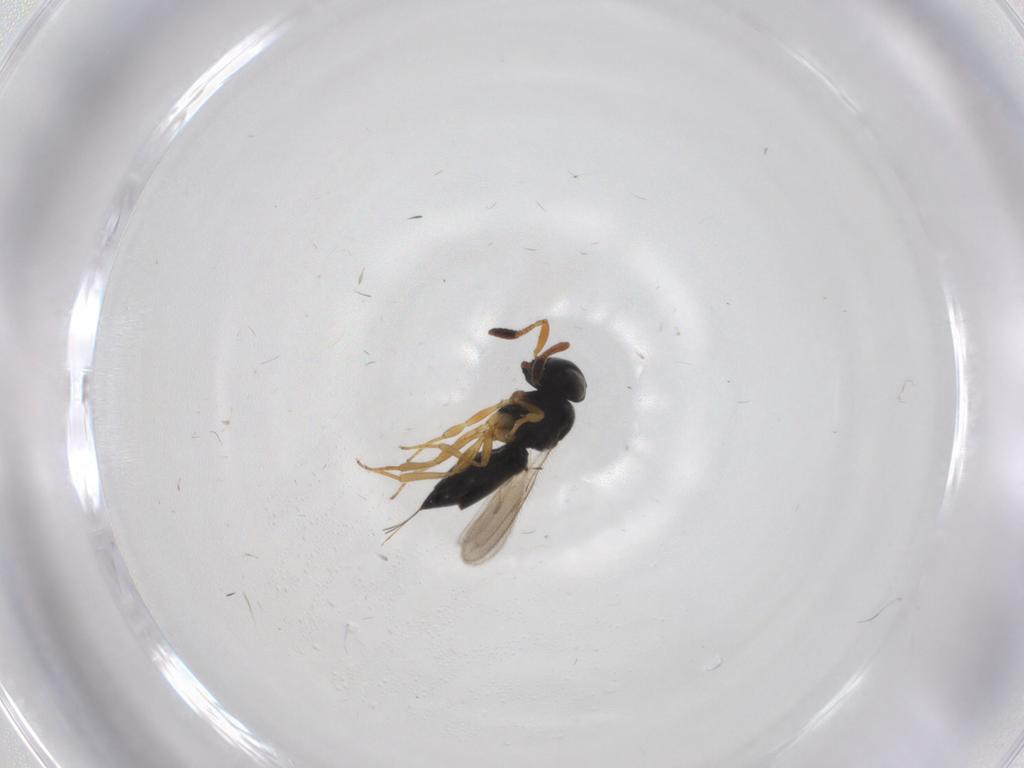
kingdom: Animalia
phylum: Arthropoda
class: Insecta
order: Hymenoptera
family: Scelionidae
